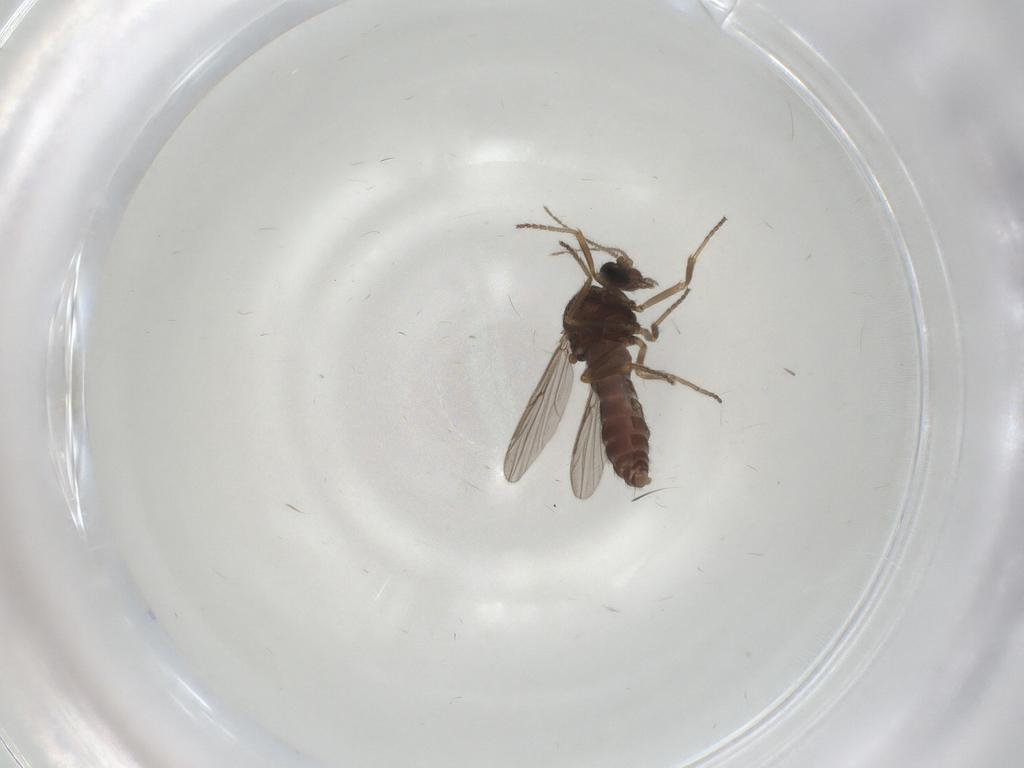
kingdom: Animalia
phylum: Arthropoda
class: Insecta
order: Diptera
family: Ceratopogonidae
